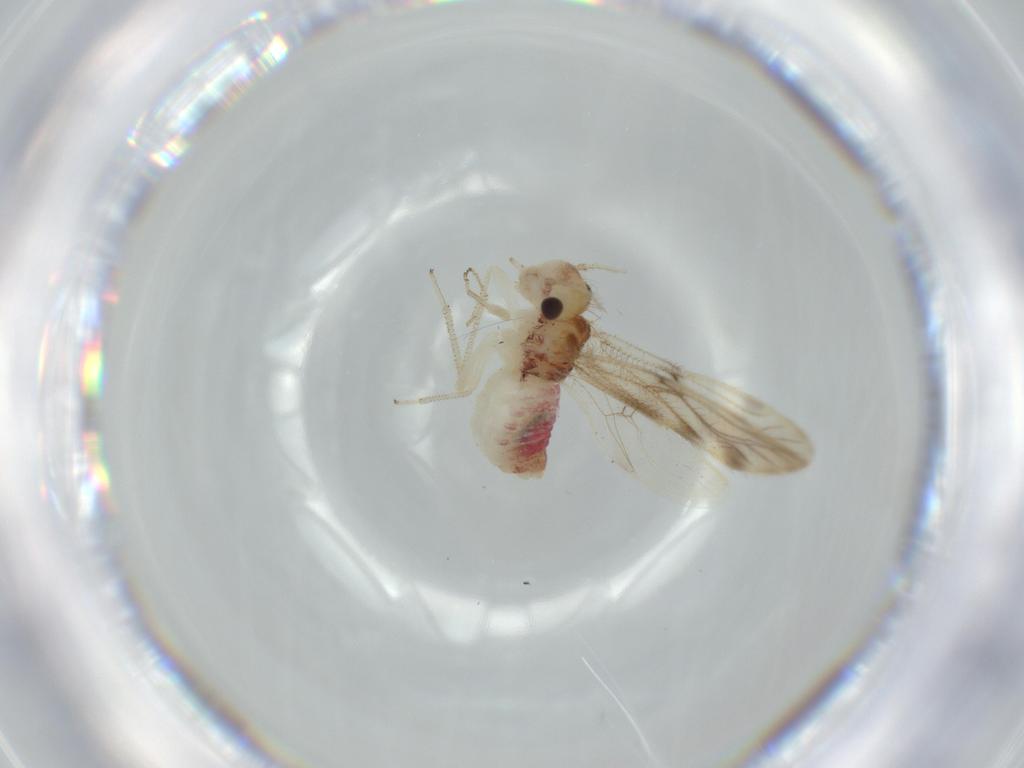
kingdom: Animalia
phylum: Arthropoda
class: Insecta
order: Psocodea
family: Pseudocaeciliidae
